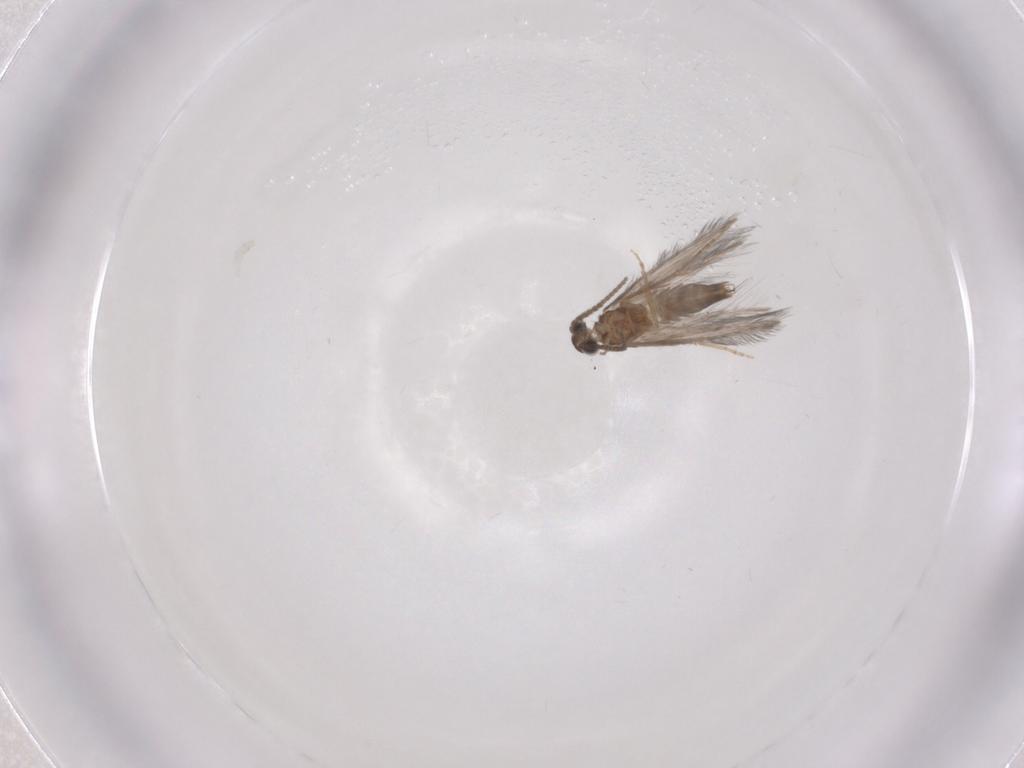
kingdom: Animalia
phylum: Arthropoda
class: Insecta
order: Trichoptera
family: Hydroptilidae
